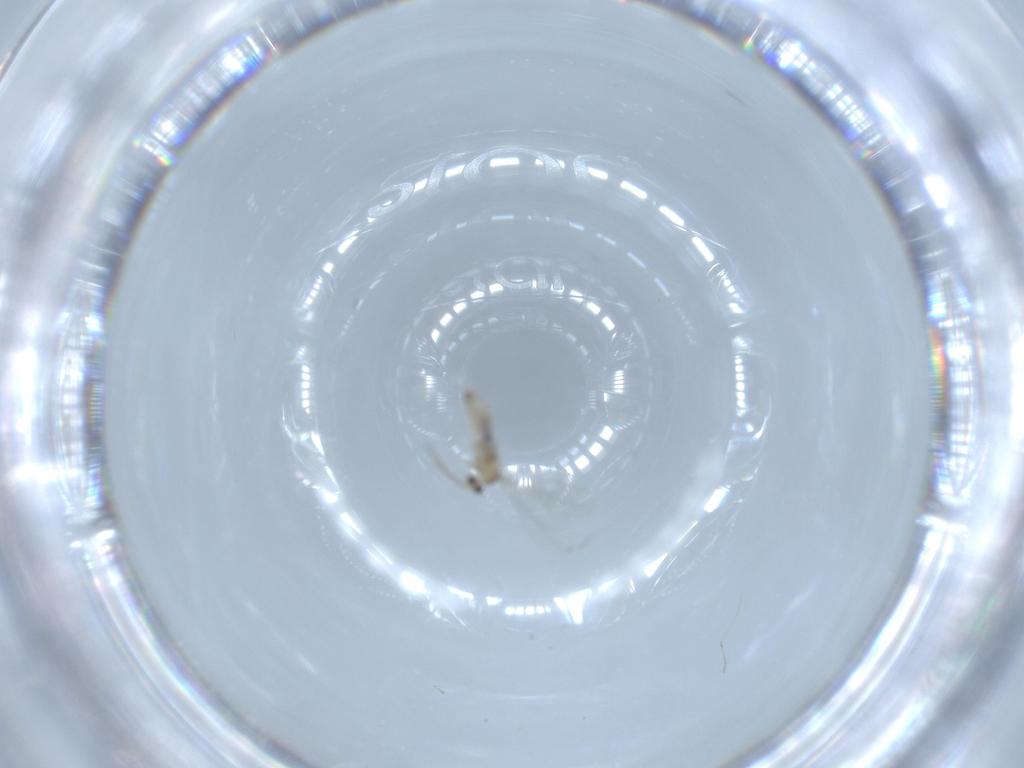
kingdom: Animalia
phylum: Arthropoda
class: Insecta
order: Diptera
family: Cecidomyiidae
